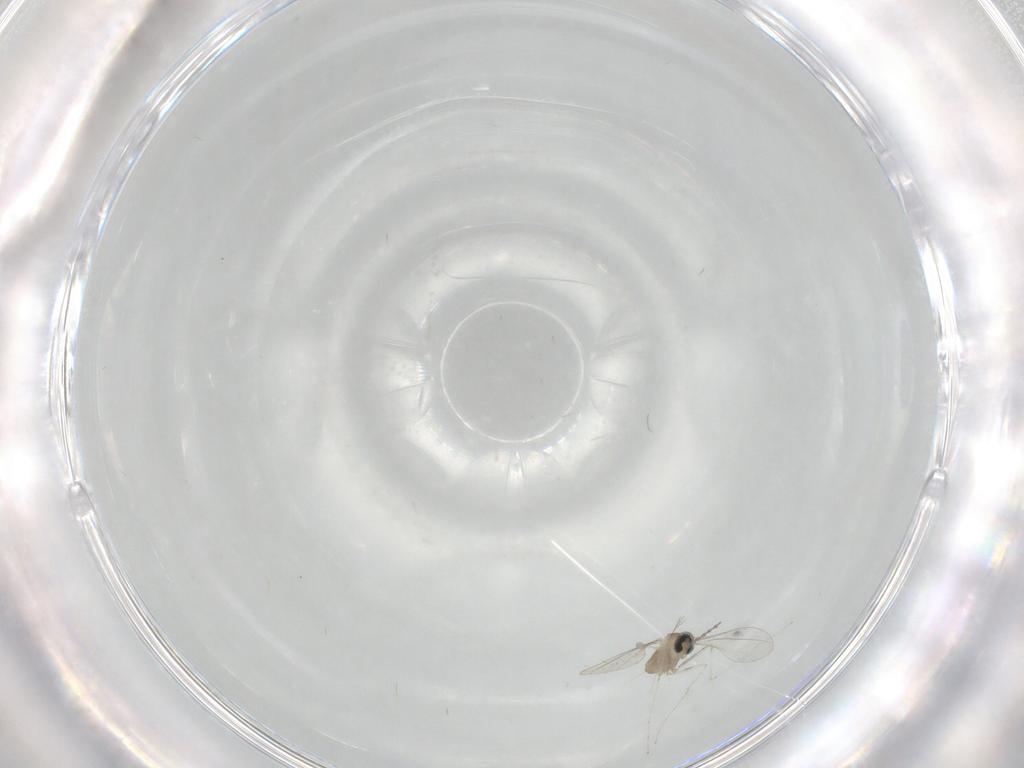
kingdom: Animalia
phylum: Arthropoda
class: Insecta
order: Diptera
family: Cecidomyiidae
